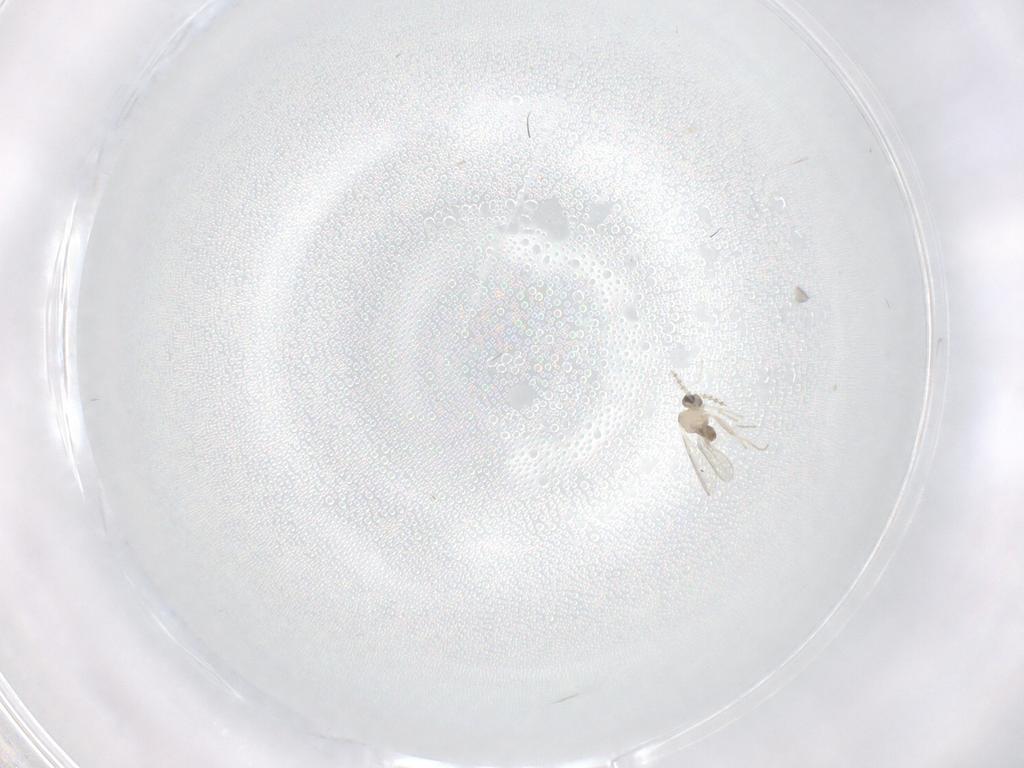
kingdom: Animalia
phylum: Arthropoda
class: Insecta
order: Diptera
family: Cecidomyiidae
